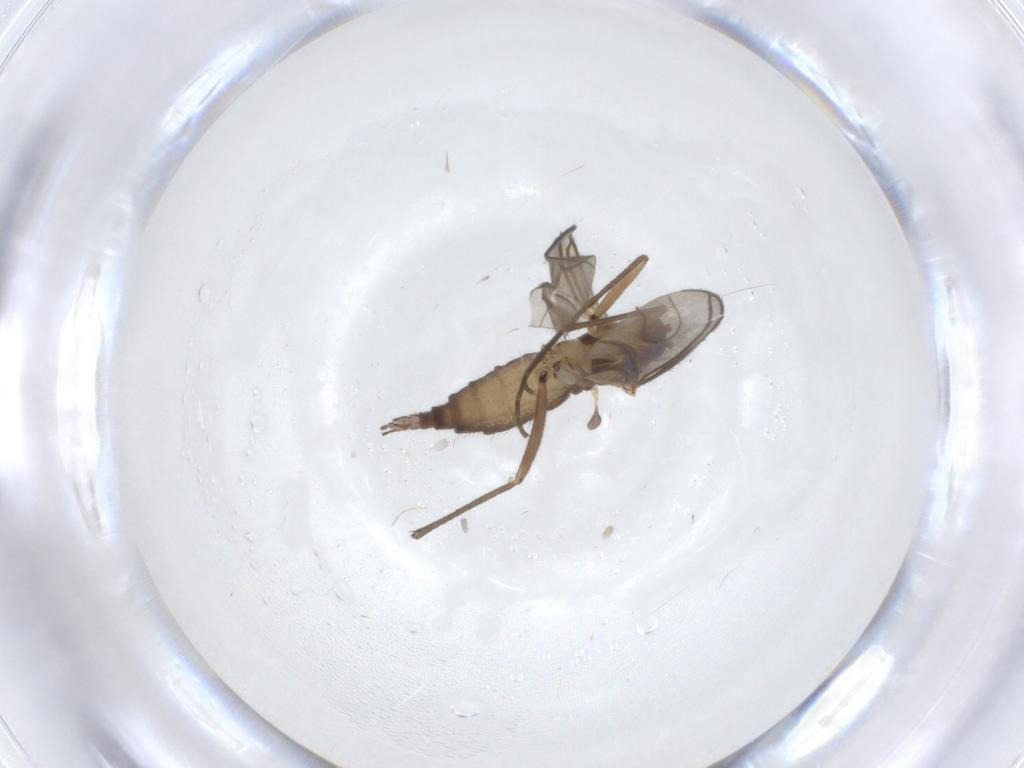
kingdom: Animalia
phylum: Arthropoda
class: Insecta
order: Diptera
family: Sciaridae
